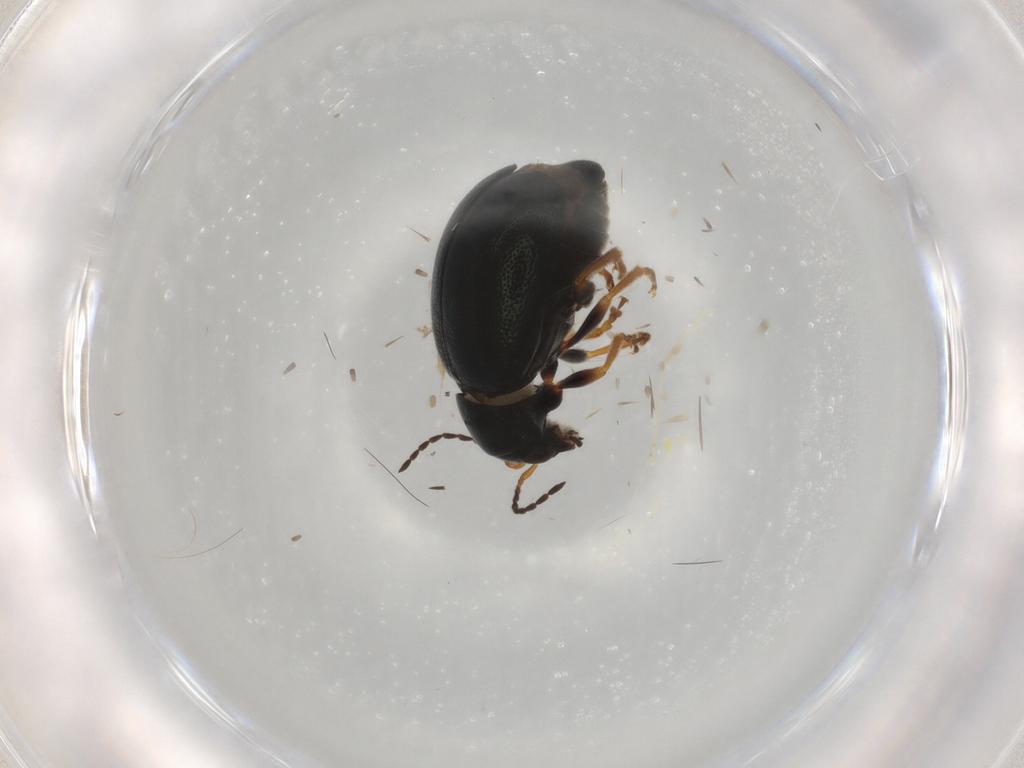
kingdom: Animalia
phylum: Arthropoda
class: Insecta
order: Coleoptera
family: Chrysomelidae
